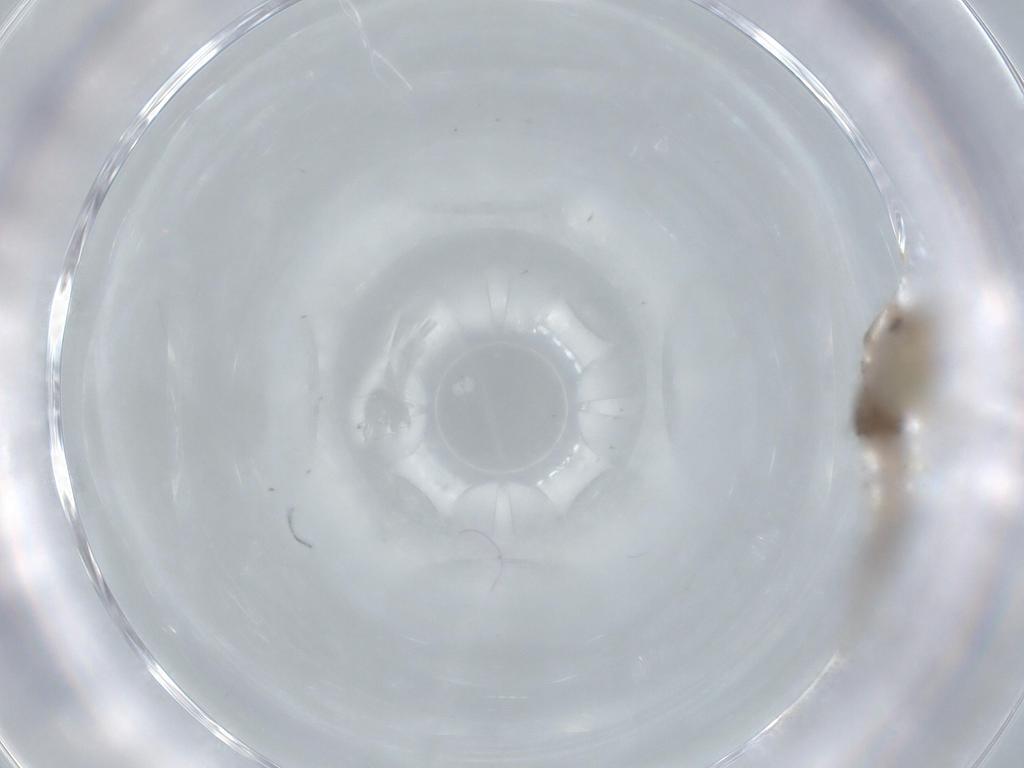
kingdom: Animalia
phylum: Arthropoda
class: Insecta
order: Neuroptera
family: Coniopterygidae
